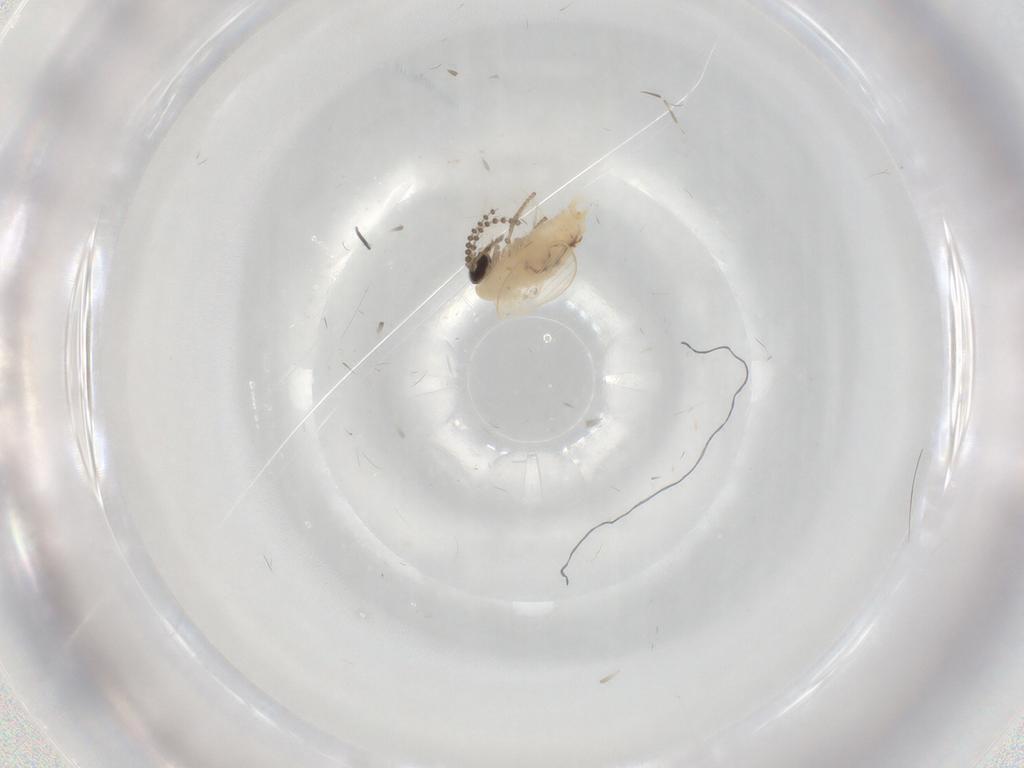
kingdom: Animalia
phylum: Arthropoda
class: Insecta
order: Diptera
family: Psychodidae
